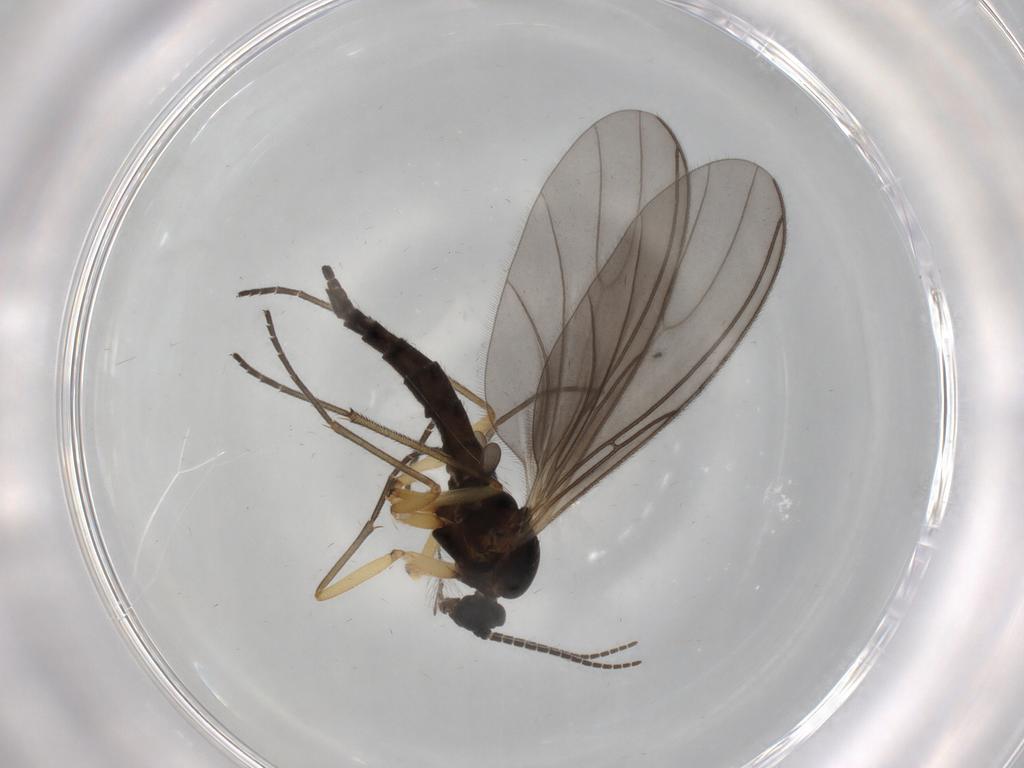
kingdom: Animalia
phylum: Arthropoda
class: Insecta
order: Diptera
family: Sciaridae
